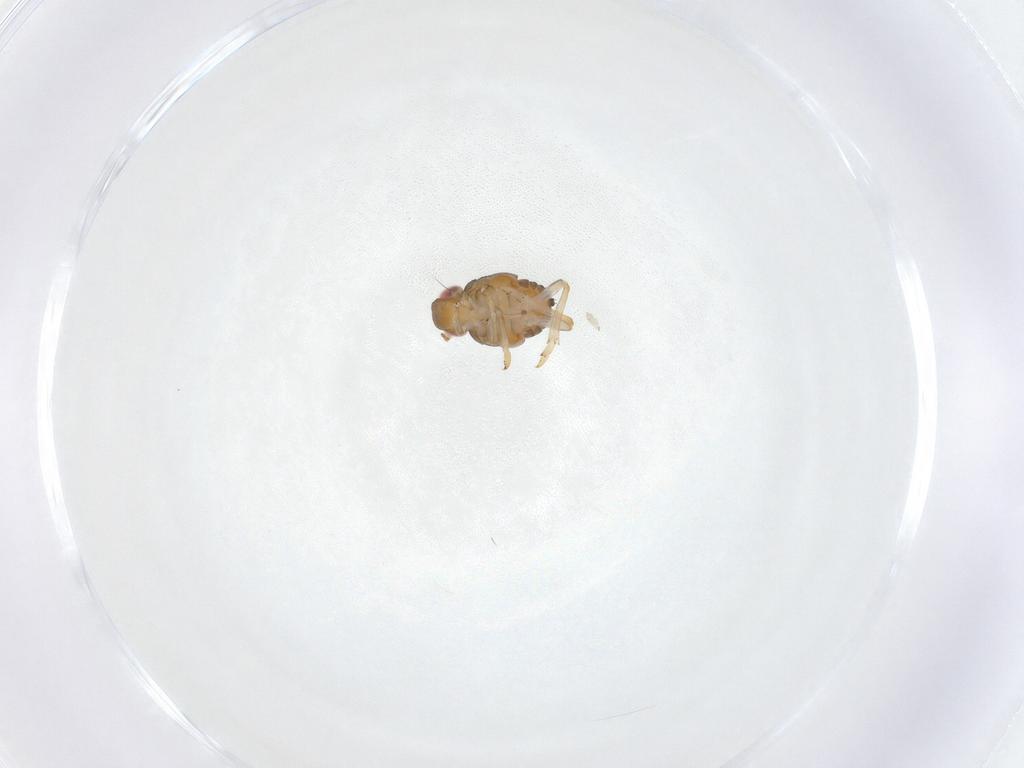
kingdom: Animalia
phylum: Arthropoda
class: Insecta
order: Hemiptera
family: Issidae
